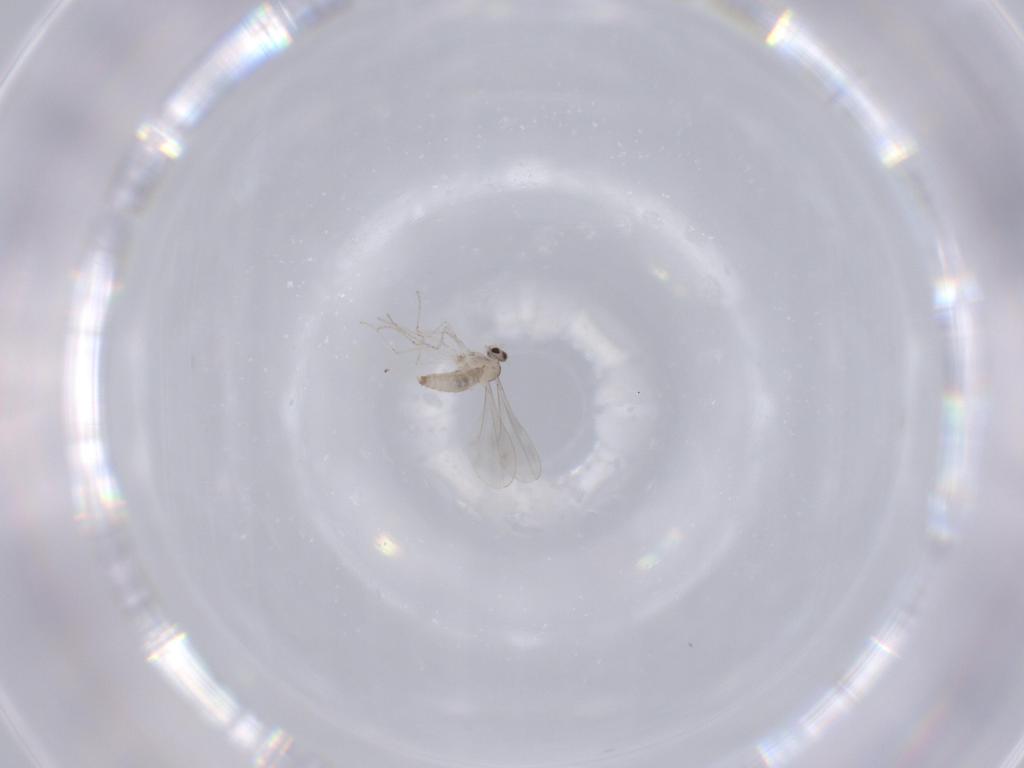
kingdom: Animalia
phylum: Arthropoda
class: Insecta
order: Diptera
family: Cecidomyiidae
